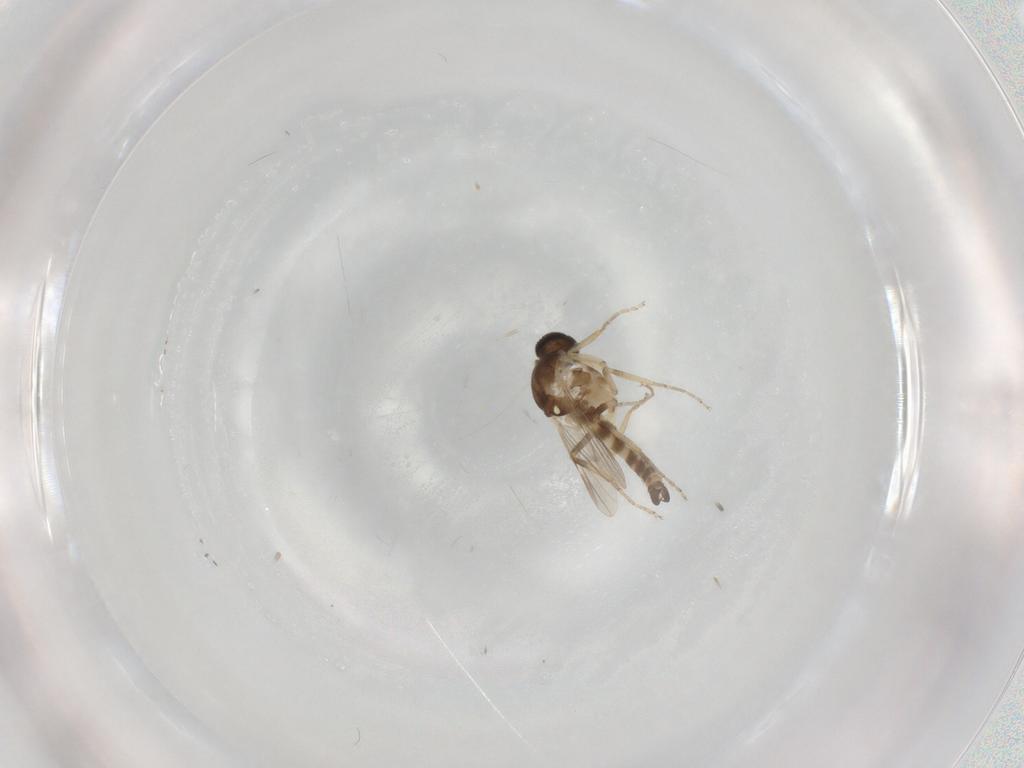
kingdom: Animalia
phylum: Arthropoda
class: Insecta
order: Diptera
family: Ceratopogonidae
